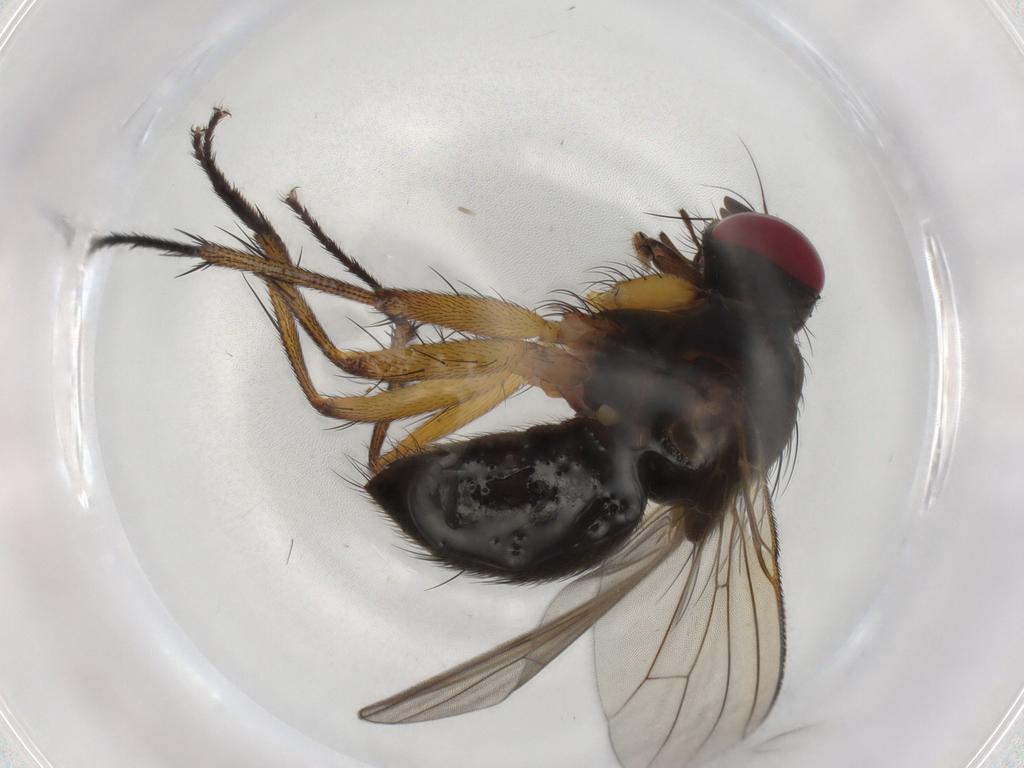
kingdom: Animalia
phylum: Arthropoda
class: Insecta
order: Diptera
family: Muscidae
